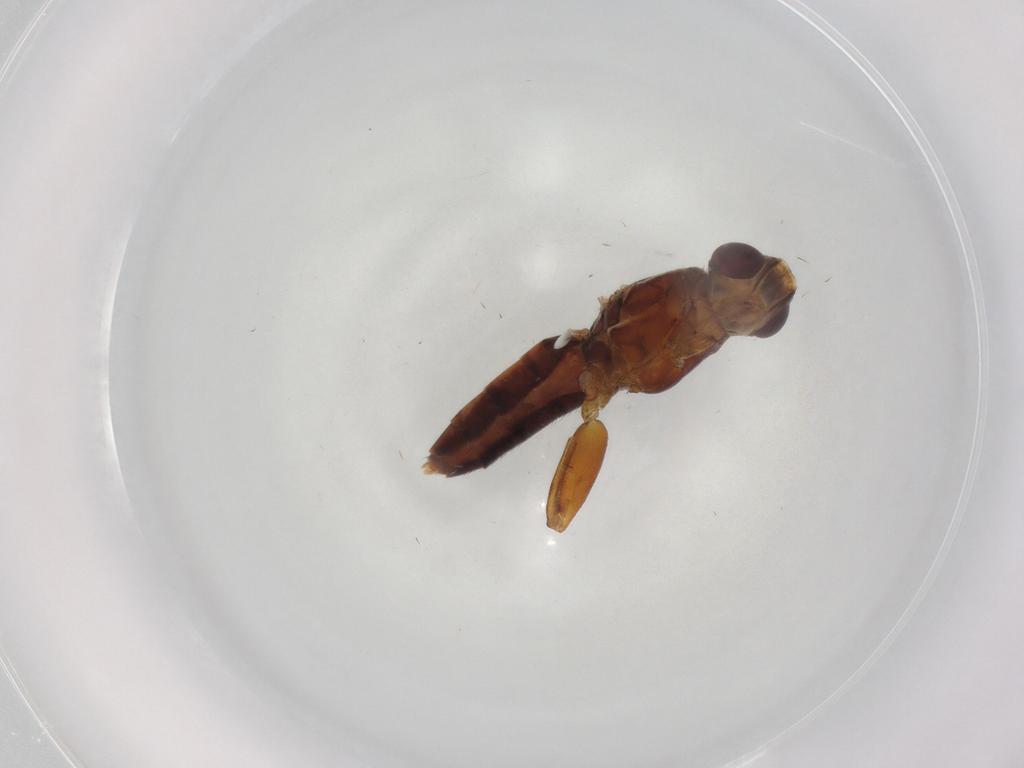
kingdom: Animalia
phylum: Arthropoda
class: Insecta
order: Diptera
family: Chloropidae
